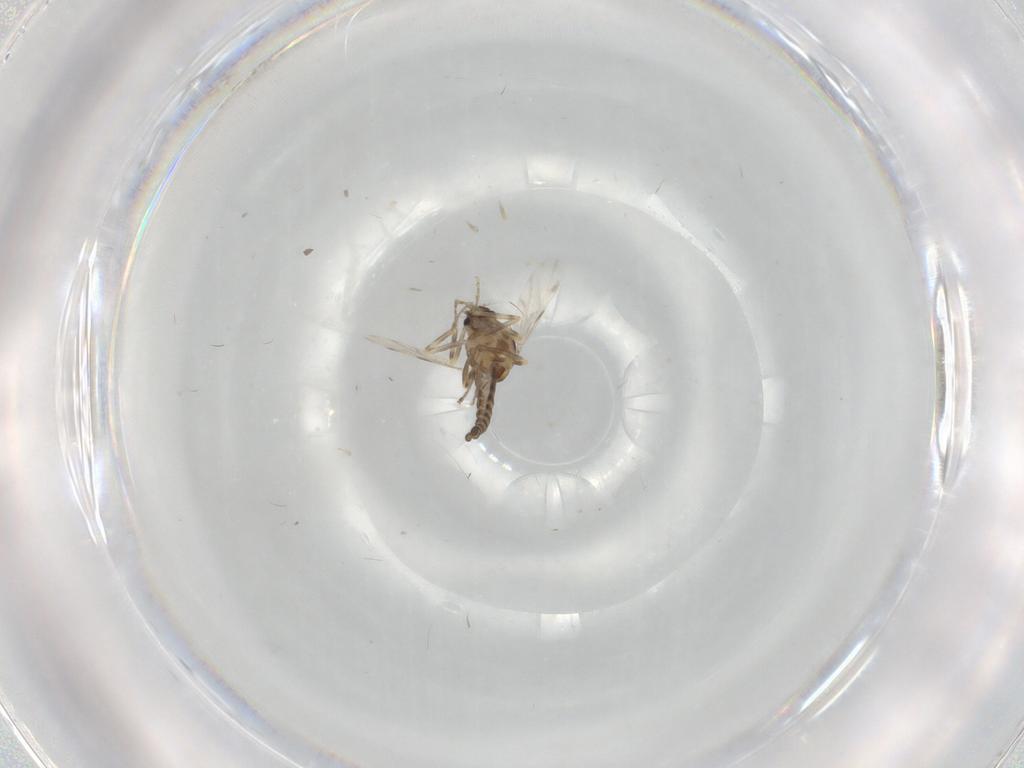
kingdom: Animalia
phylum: Arthropoda
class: Insecta
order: Diptera
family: Ceratopogonidae
